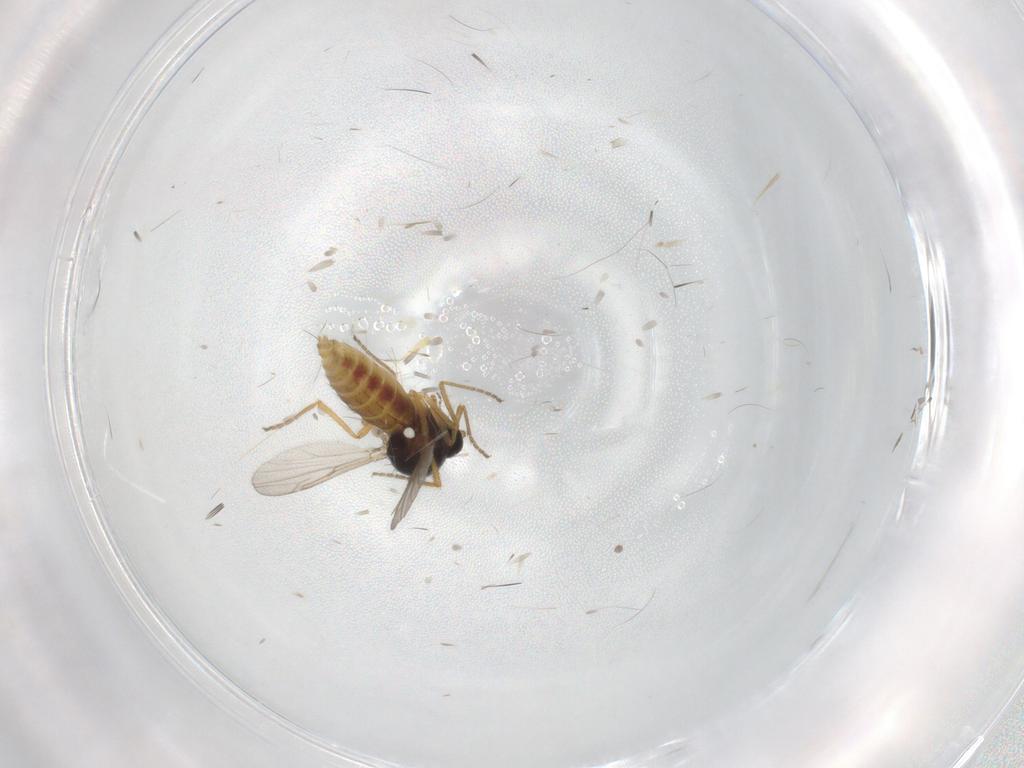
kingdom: Animalia
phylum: Arthropoda
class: Insecta
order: Diptera
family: Ceratopogonidae
